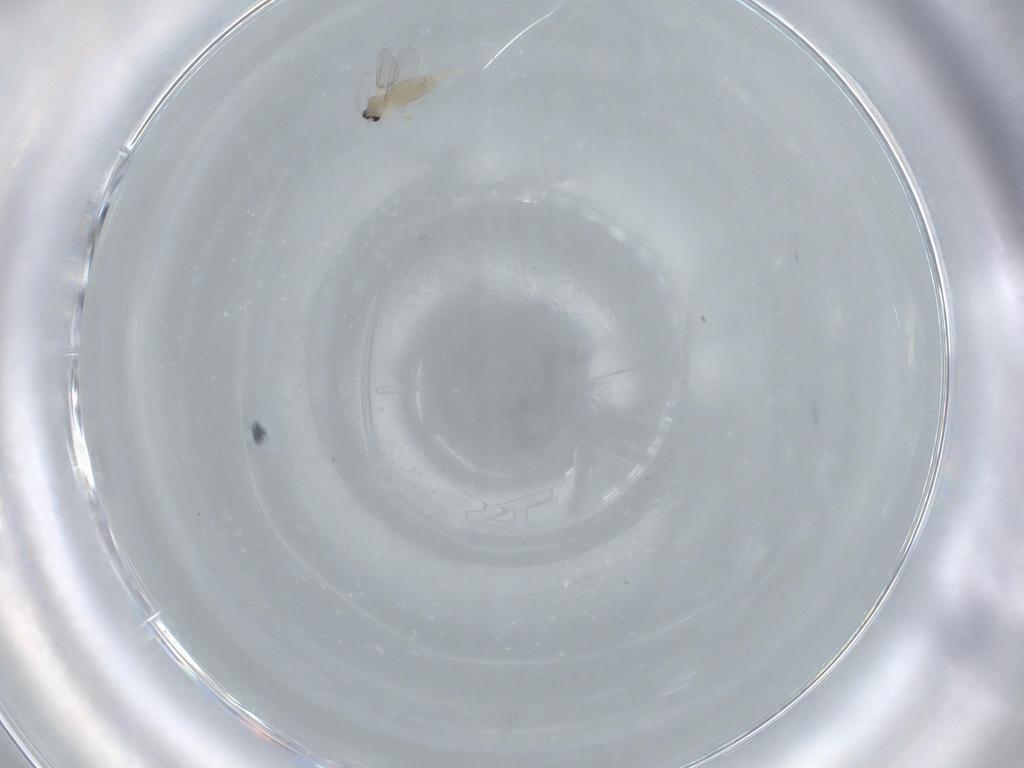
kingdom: Animalia
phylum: Arthropoda
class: Insecta
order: Diptera
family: Cecidomyiidae
